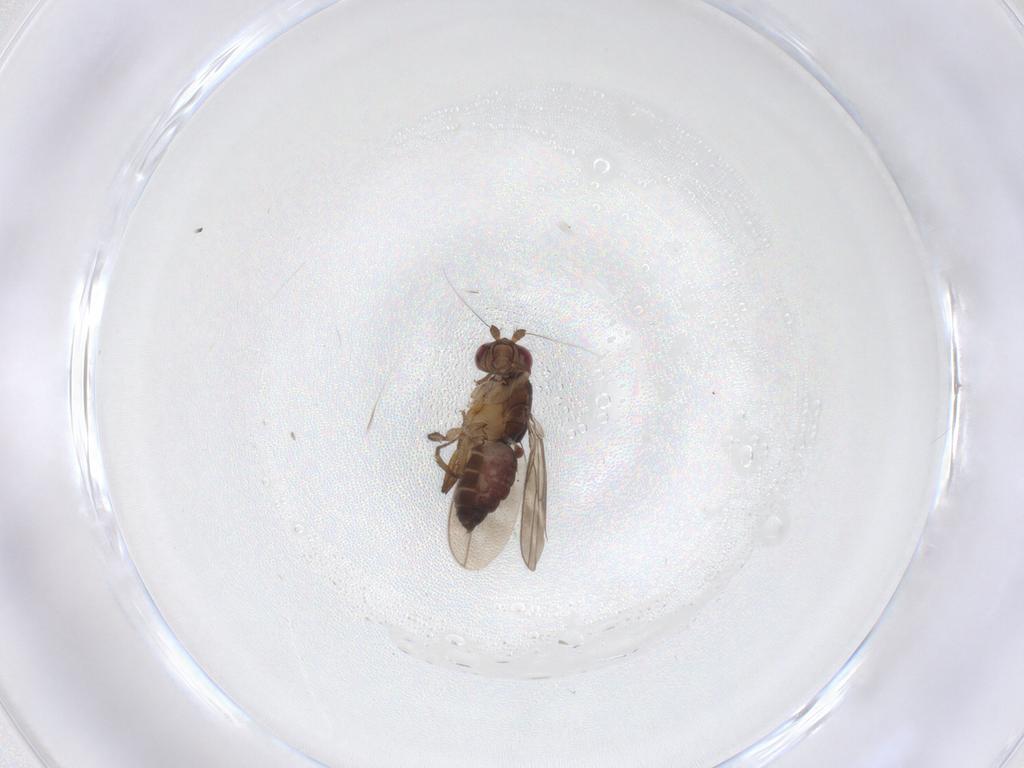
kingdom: Animalia
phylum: Arthropoda
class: Insecta
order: Diptera
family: Sphaeroceridae
